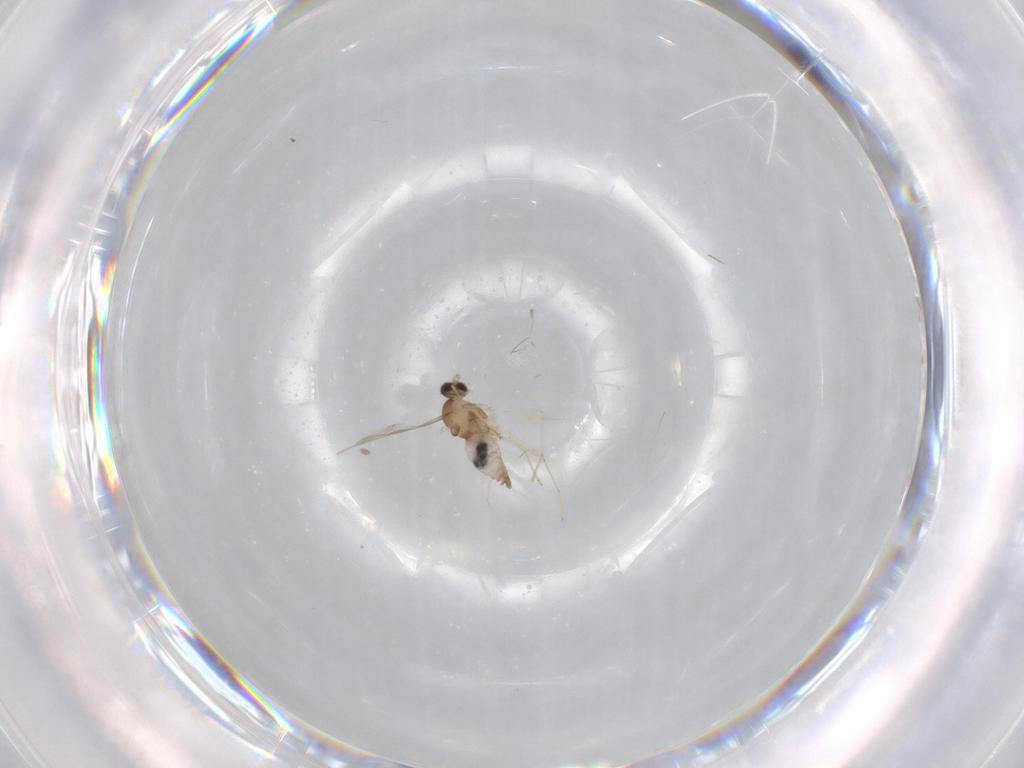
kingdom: Animalia
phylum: Arthropoda
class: Insecta
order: Diptera
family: Cecidomyiidae
